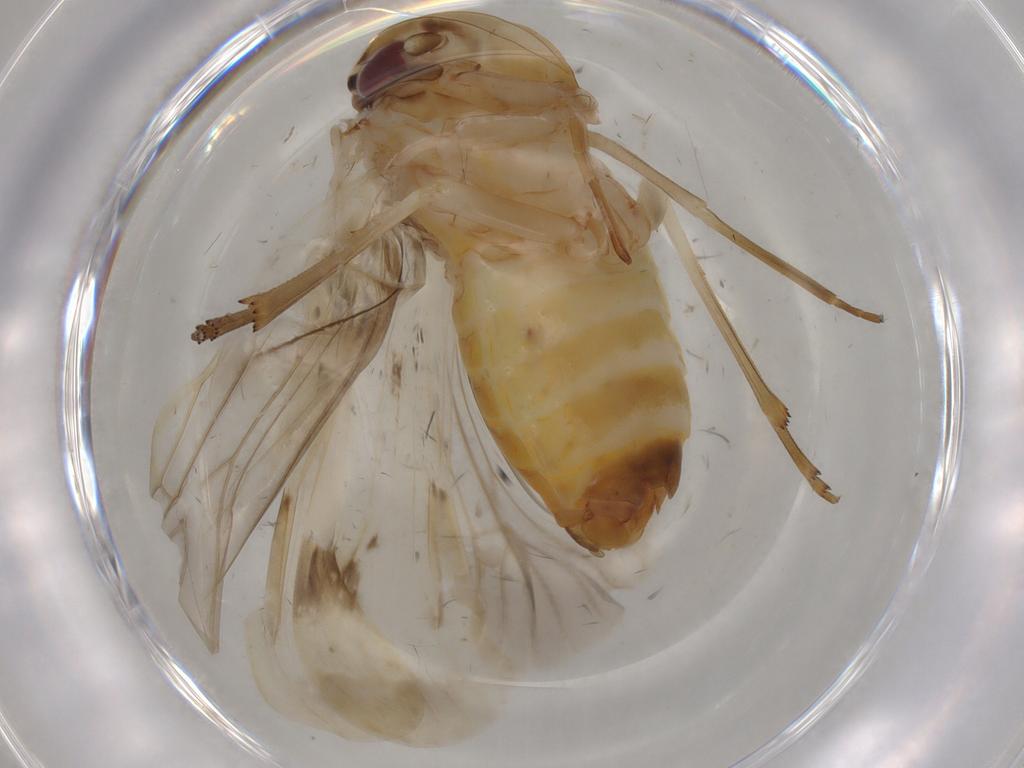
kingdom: Animalia
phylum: Arthropoda
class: Insecta
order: Hemiptera
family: Achilidae
